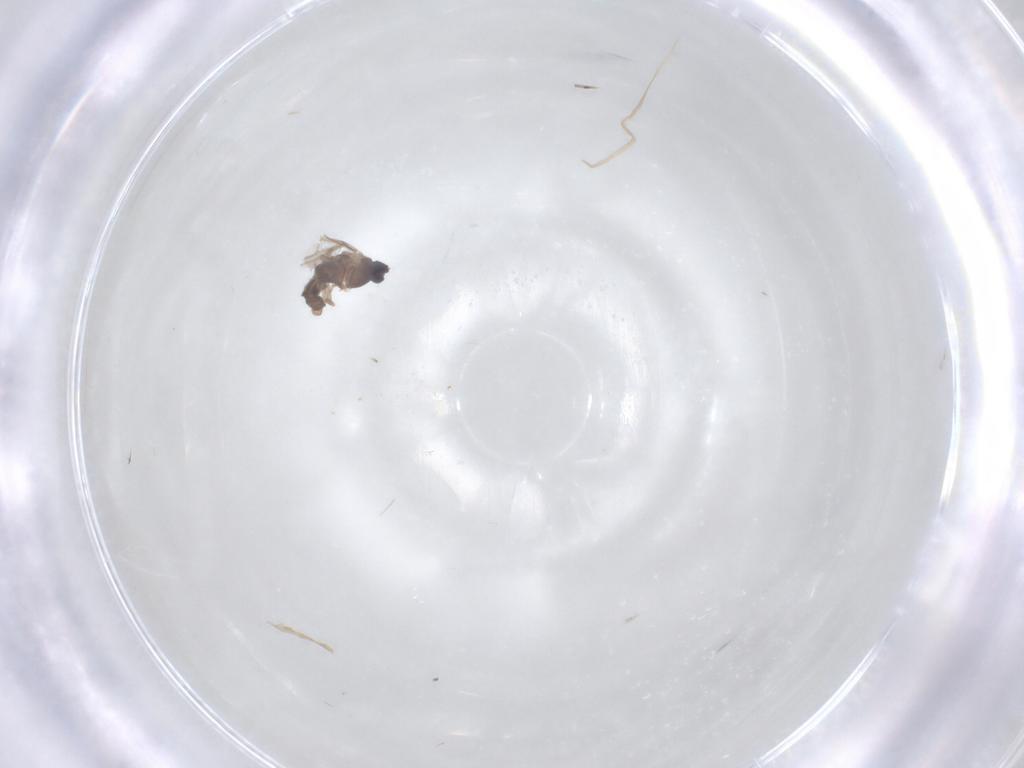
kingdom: Animalia
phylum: Arthropoda
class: Insecta
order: Diptera
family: Cecidomyiidae
